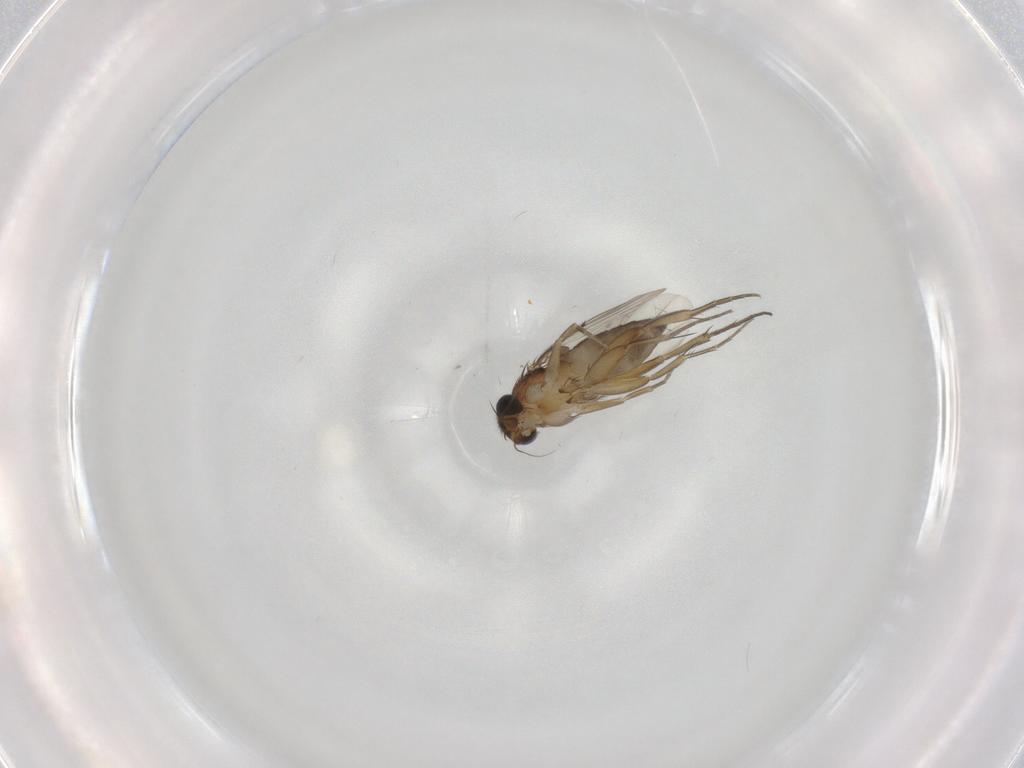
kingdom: Animalia
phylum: Arthropoda
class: Insecta
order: Diptera
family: Phoridae
